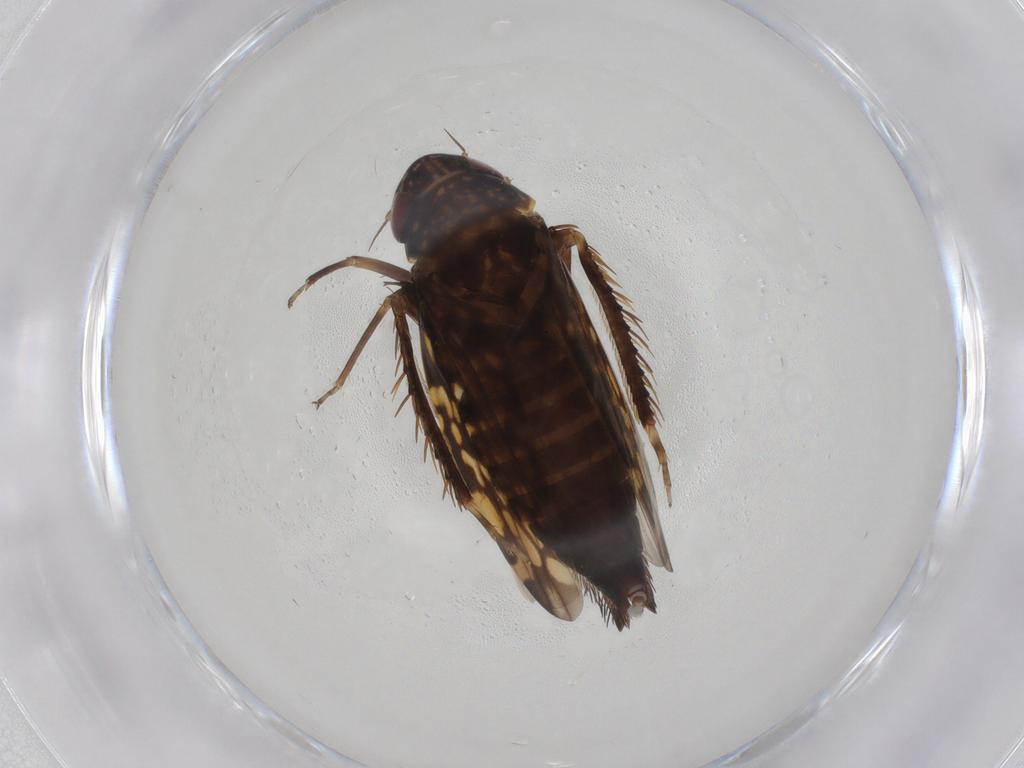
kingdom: Animalia
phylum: Arthropoda
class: Insecta
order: Hemiptera
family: Cicadellidae
